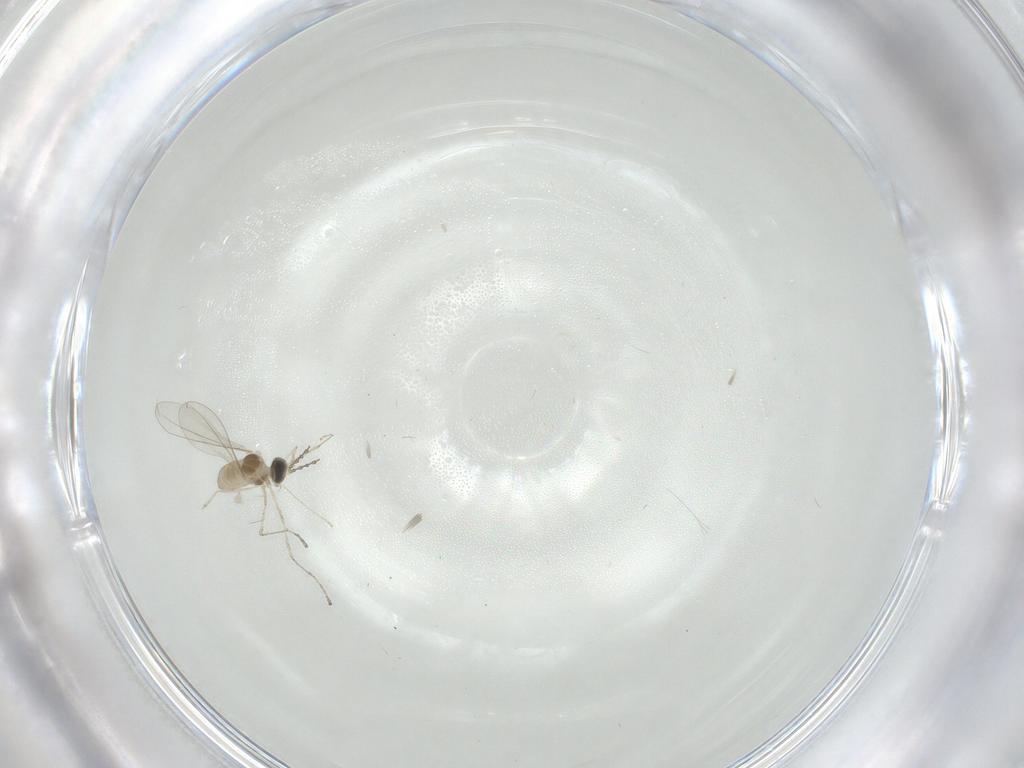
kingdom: Animalia
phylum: Arthropoda
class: Insecta
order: Diptera
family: Cecidomyiidae
